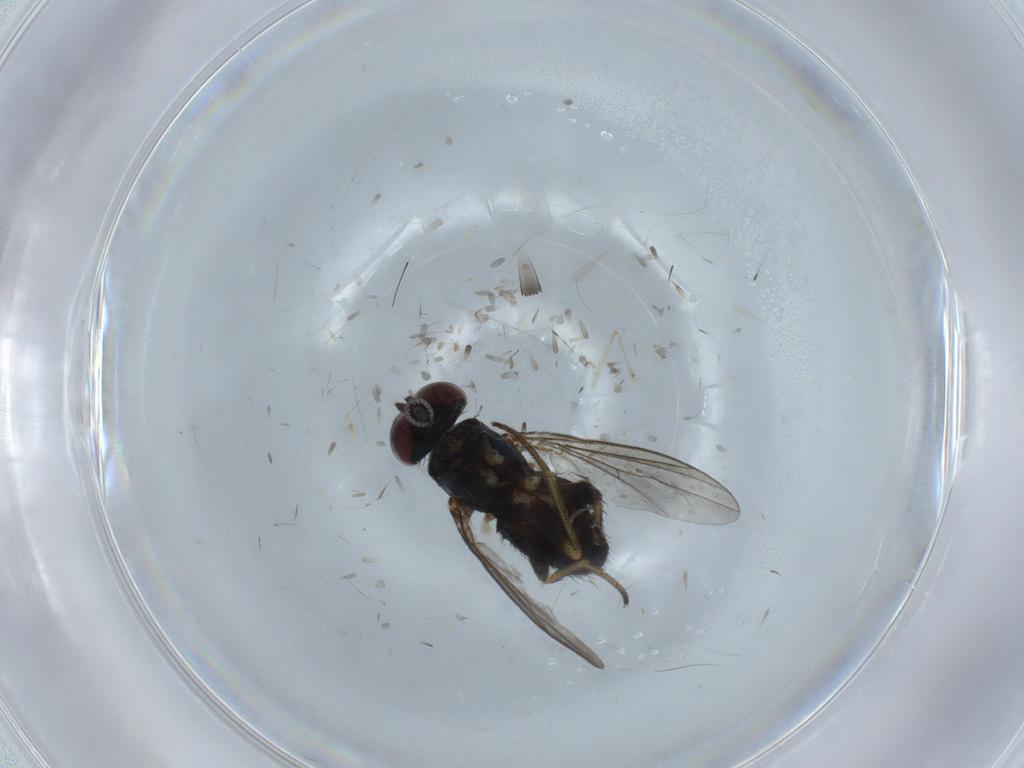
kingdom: Animalia
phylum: Arthropoda
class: Insecta
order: Diptera
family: Psychodidae
